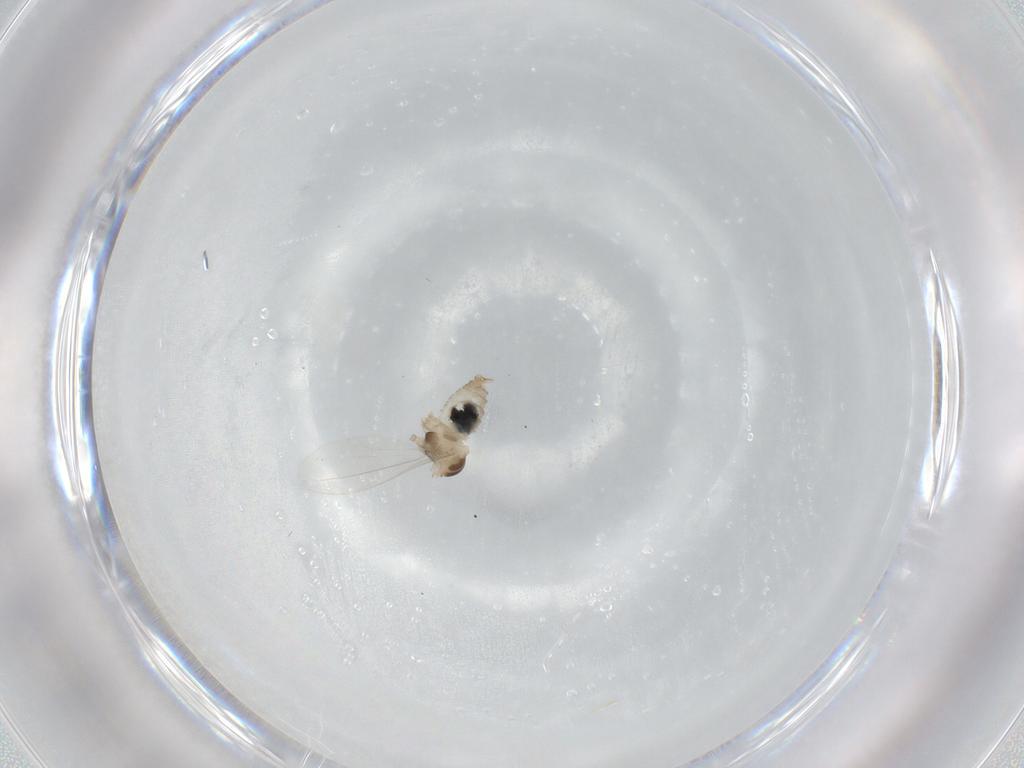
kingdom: Animalia
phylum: Arthropoda
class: Insecta
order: Diptera
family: Cecidomyiidae
